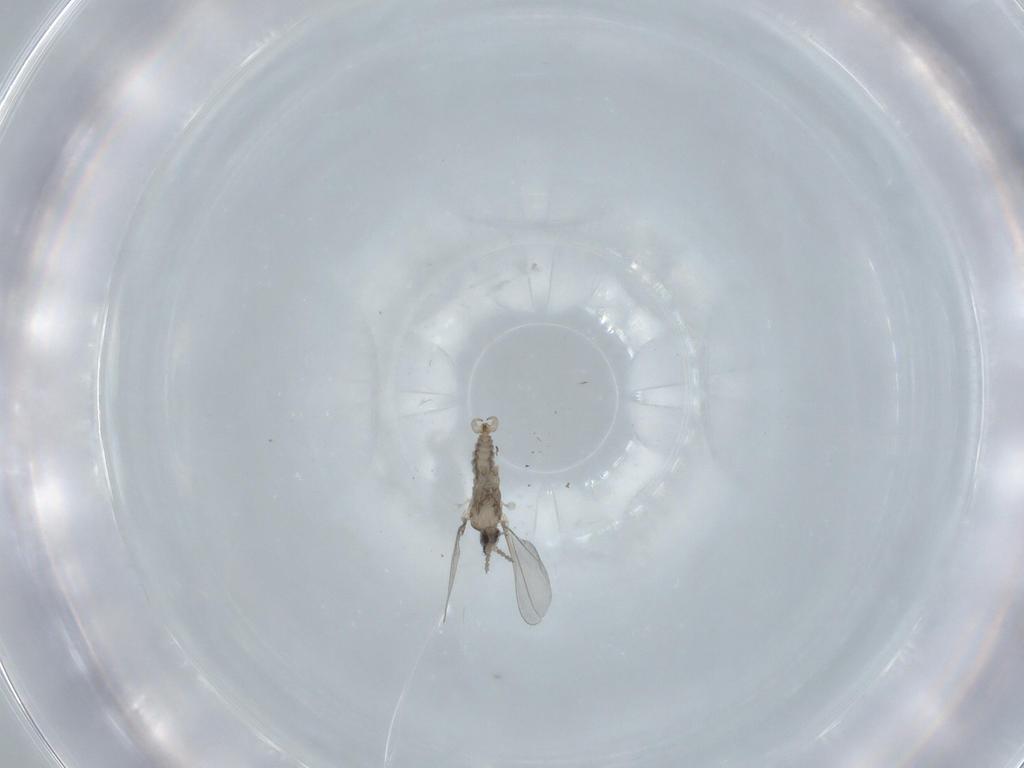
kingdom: Animalia
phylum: Arthropoda
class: Insecta
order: Diptera
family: Cecidomyiidae
